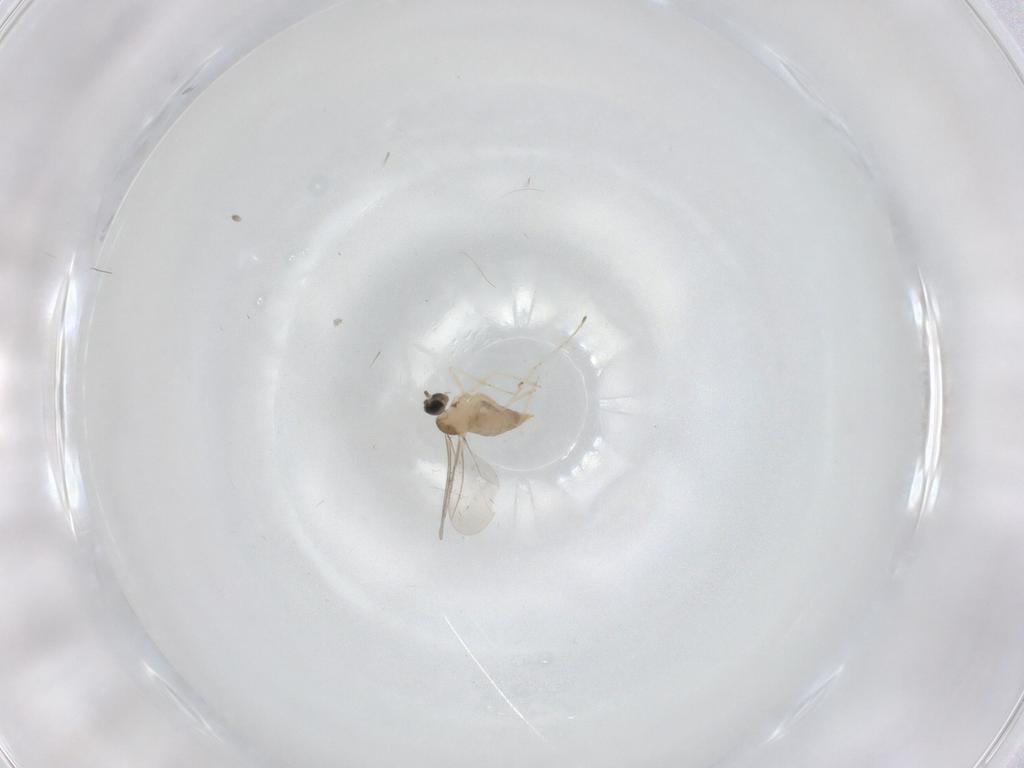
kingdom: Animalia
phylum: Arthropoda
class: Insecta
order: Diptera
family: Cecidomyiidae
